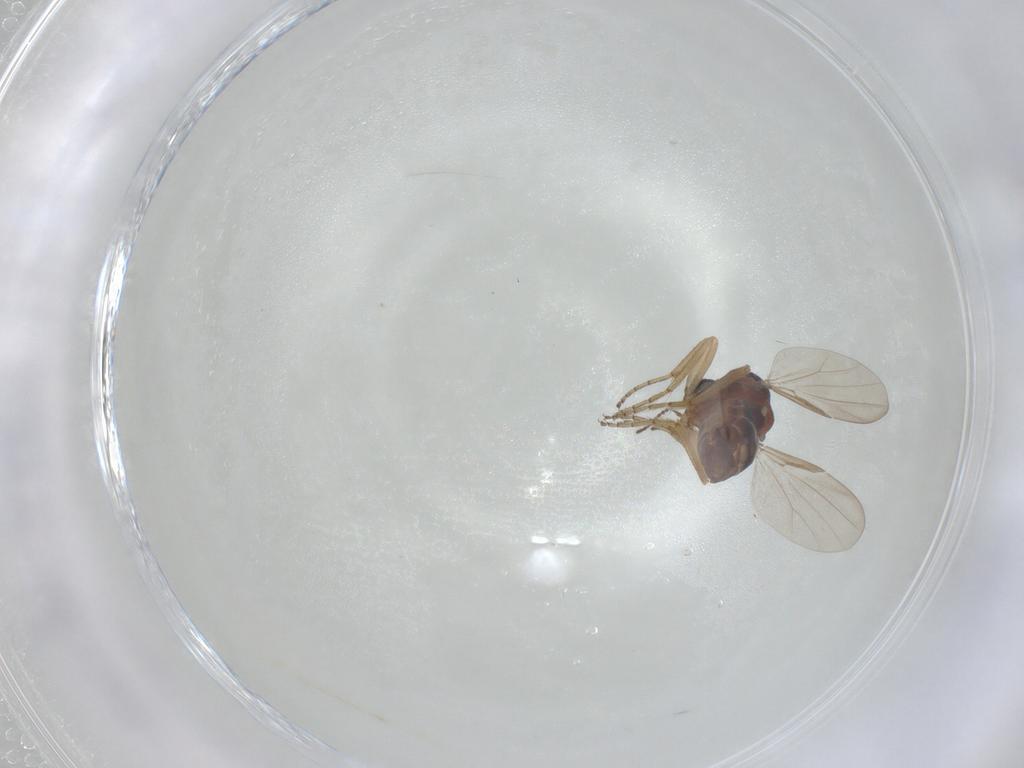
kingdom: Animalia
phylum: Arthropoda
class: Insecta
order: Diptera
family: Ceratopogonidae
